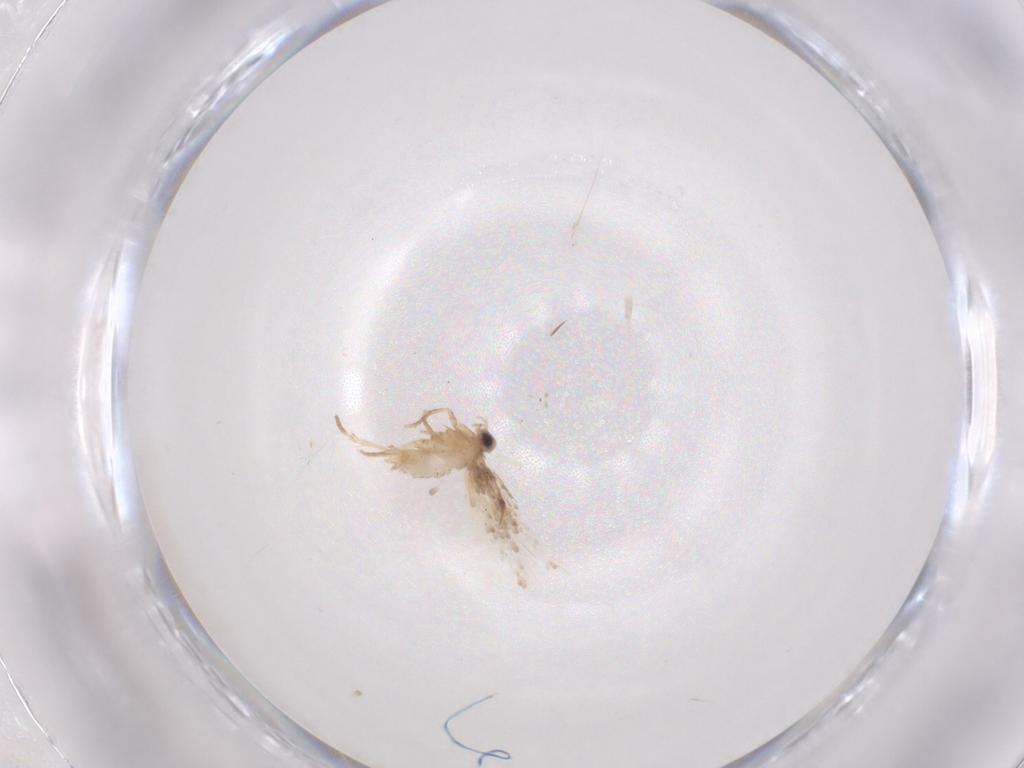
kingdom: Animalia
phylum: Arthropoda
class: Insecta
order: Lepidoptera
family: Nepticulidae
